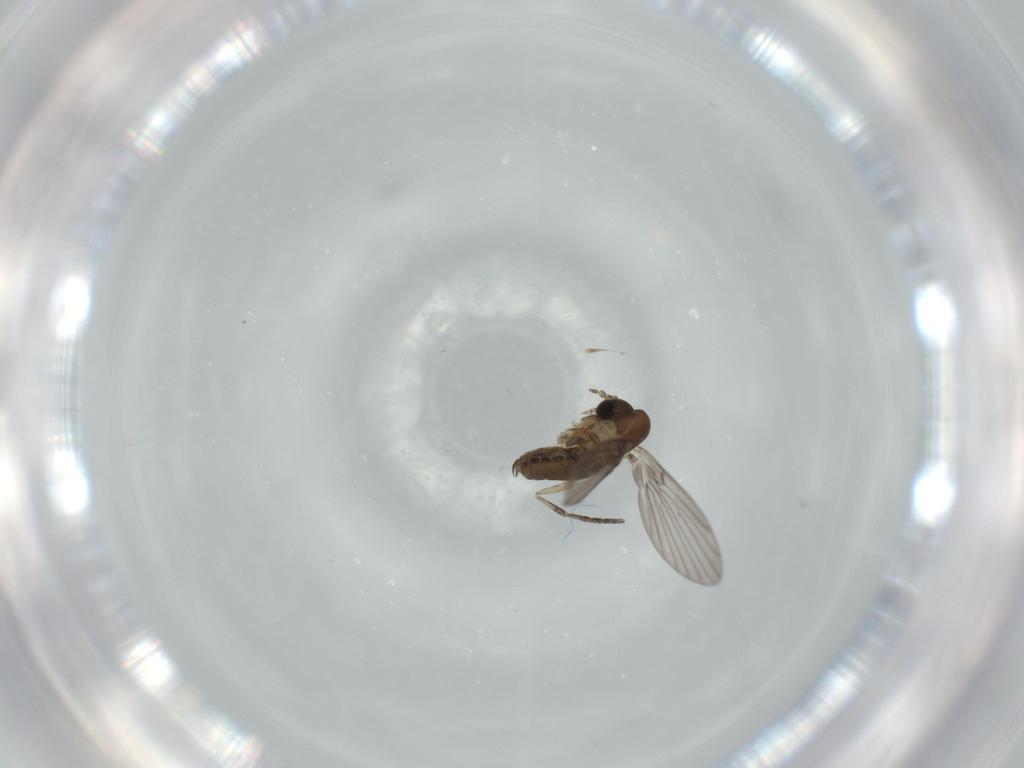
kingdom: Animalia
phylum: Arthropoda
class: Insecta
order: Diptera
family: Psychodidae
